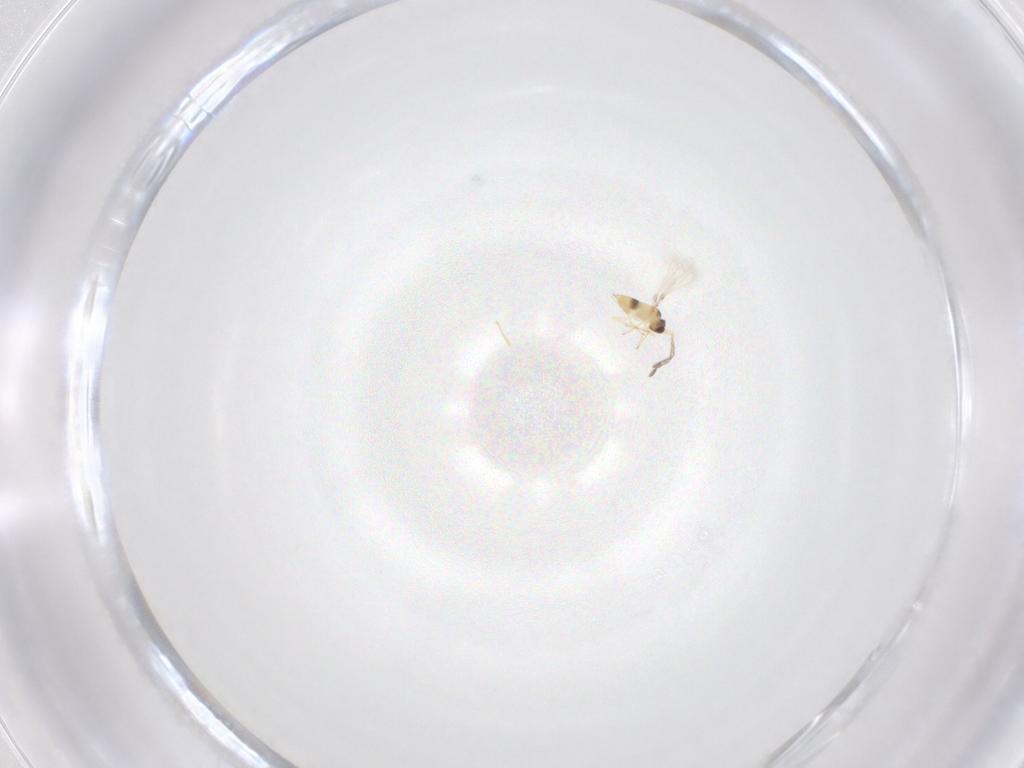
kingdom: Animalia
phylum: Arthropoda
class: Insecta
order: Hymenoptera
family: Mymaridae
